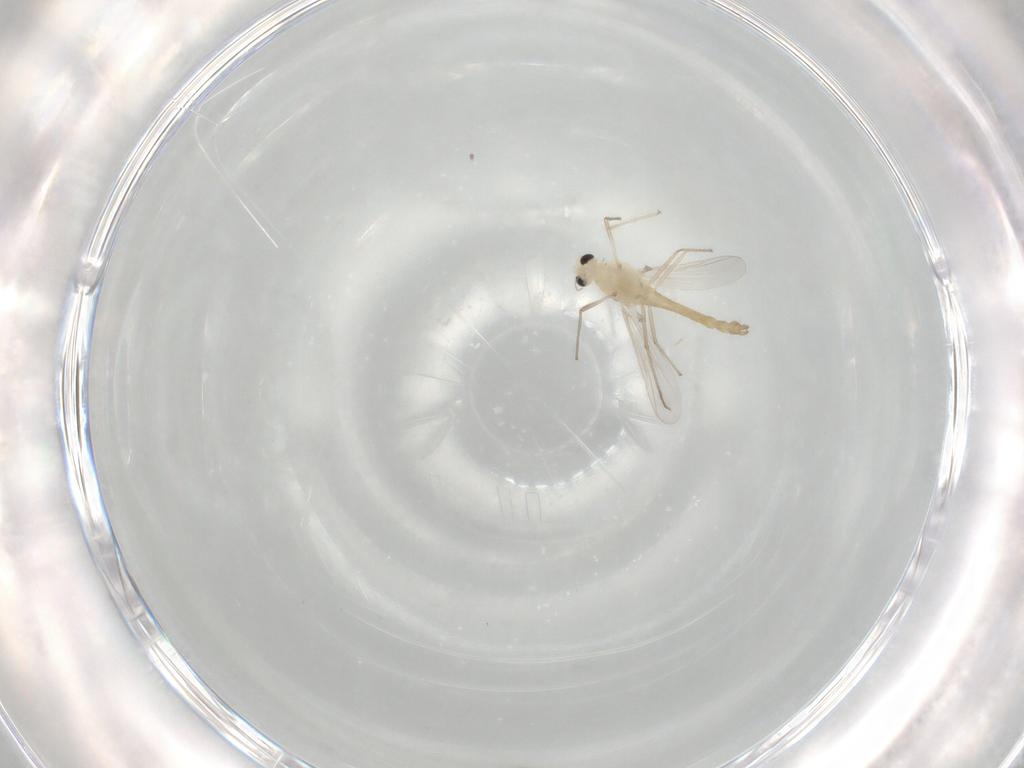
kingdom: Animalia
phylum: Arthropoda
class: Insecta
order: Diptera
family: Chironomidae
